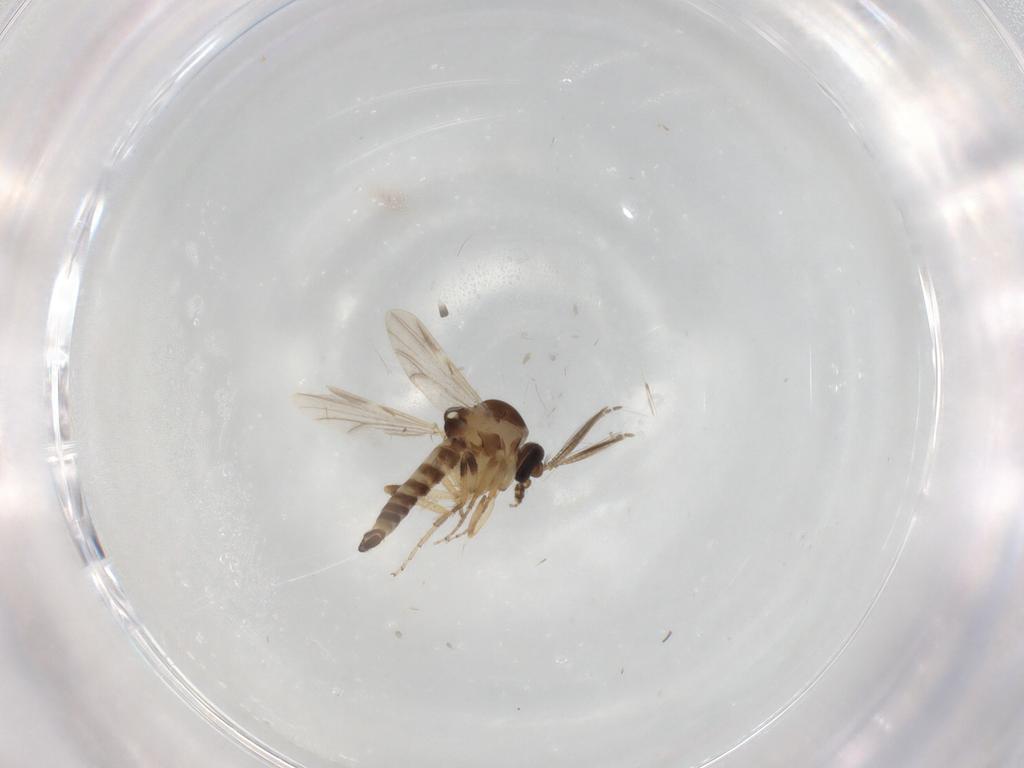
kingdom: Animalia
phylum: Arthropoda
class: Insecta
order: Diptera
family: Ceratopogonidae
